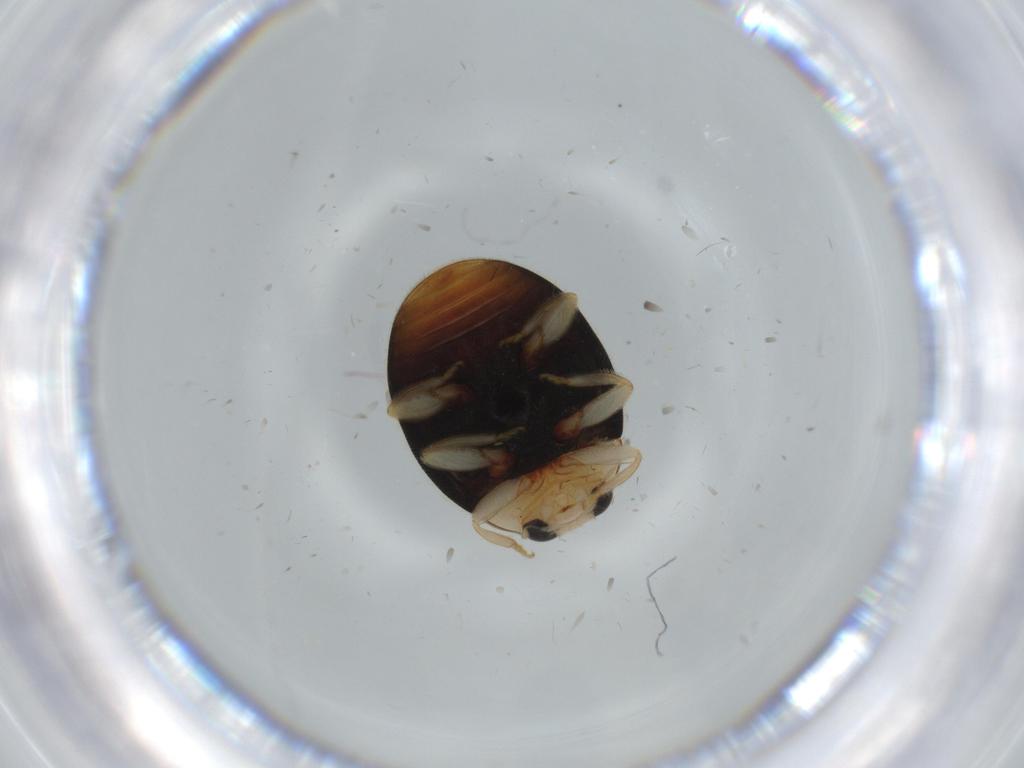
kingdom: Animalia
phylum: Arthropoda
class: Insecta
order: Coleoptera
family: Coccinellidae
